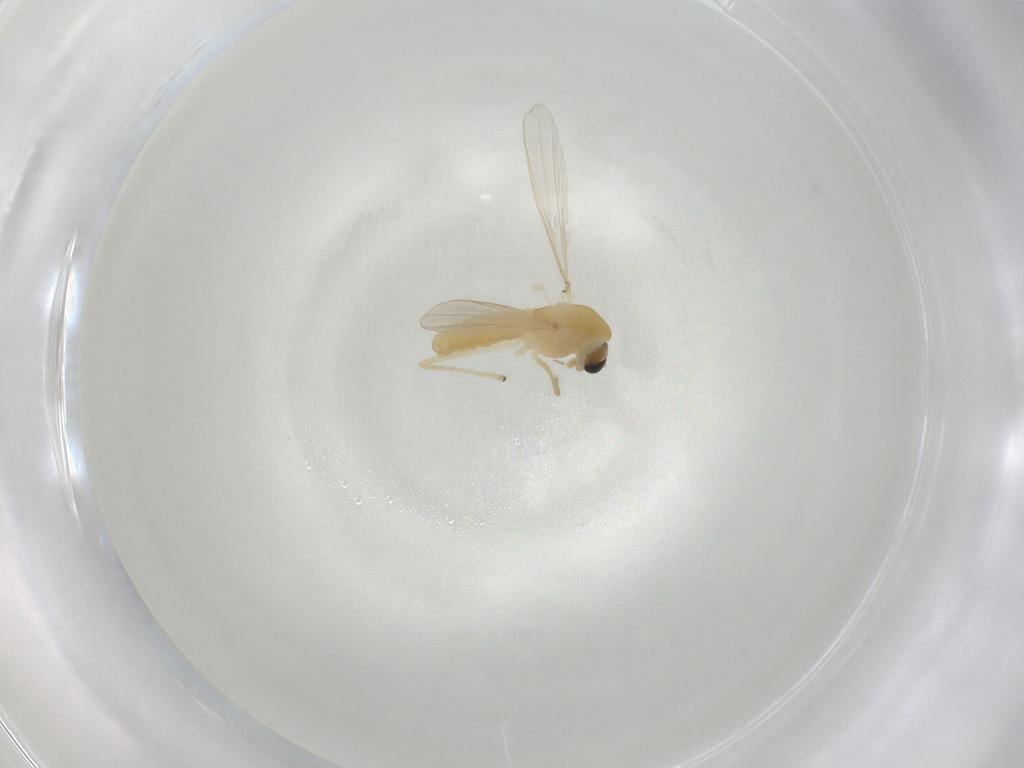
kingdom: Animalia
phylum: Arthropoda
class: Insecta
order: Diptera
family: Chironomidae
